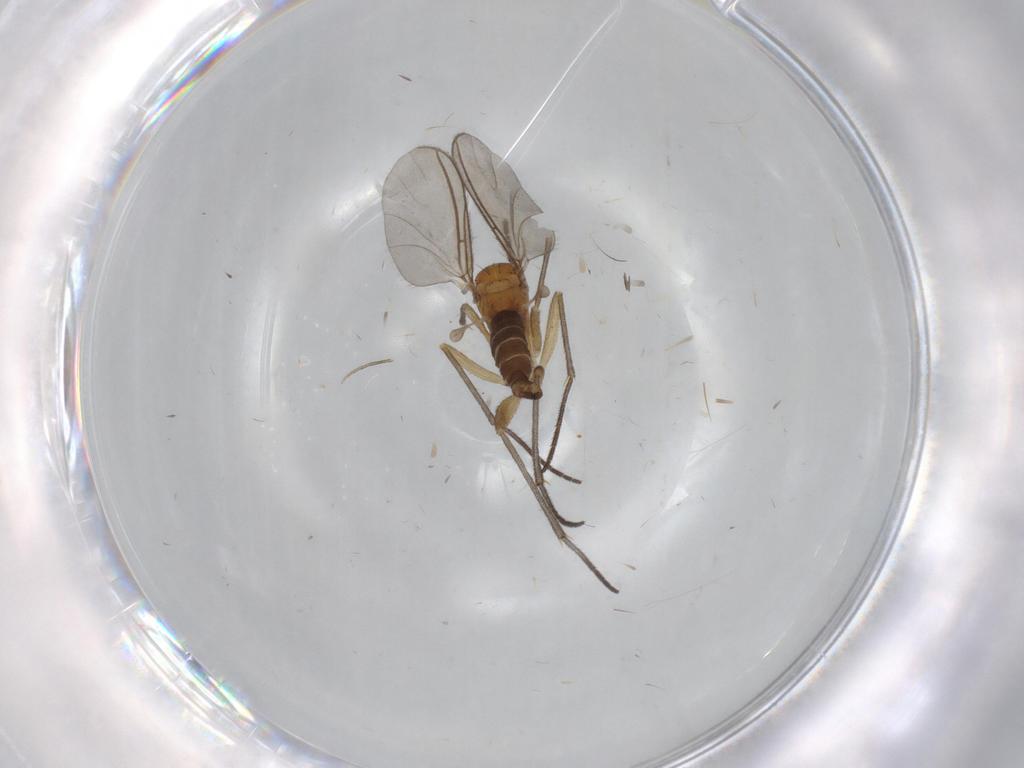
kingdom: Animalia
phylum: Arthropoda
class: Insecta
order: Diptera
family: Sciaridae
